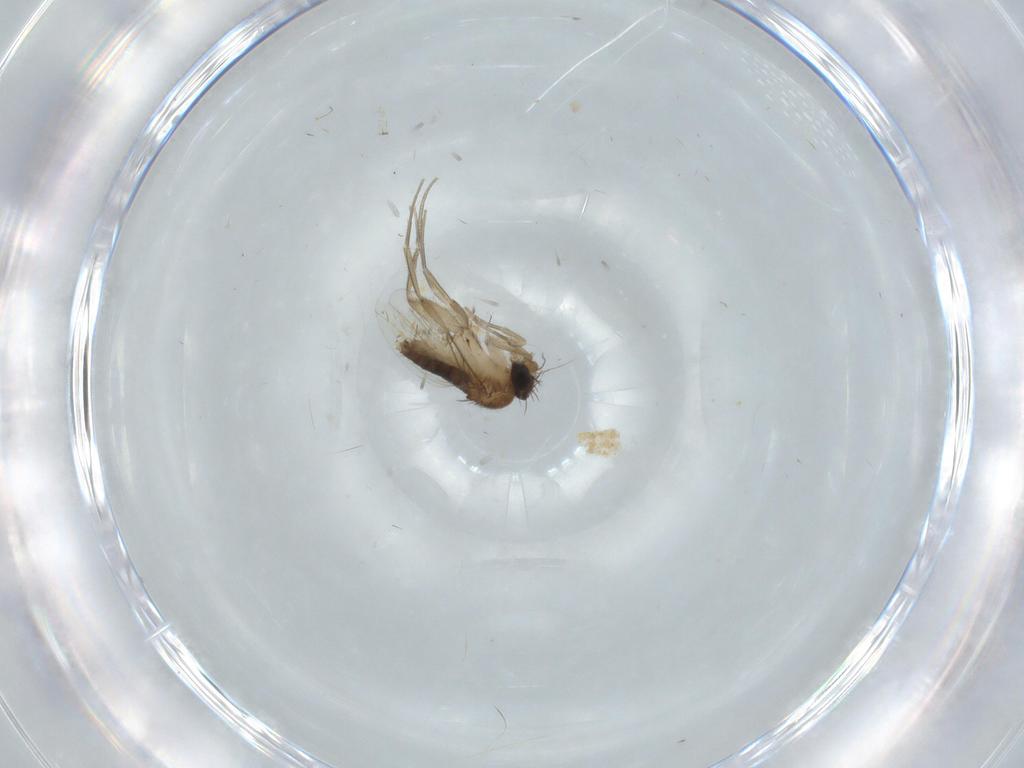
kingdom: Animalia
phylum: Arthropoda
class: Insecta
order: Diptera
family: Phoridae
